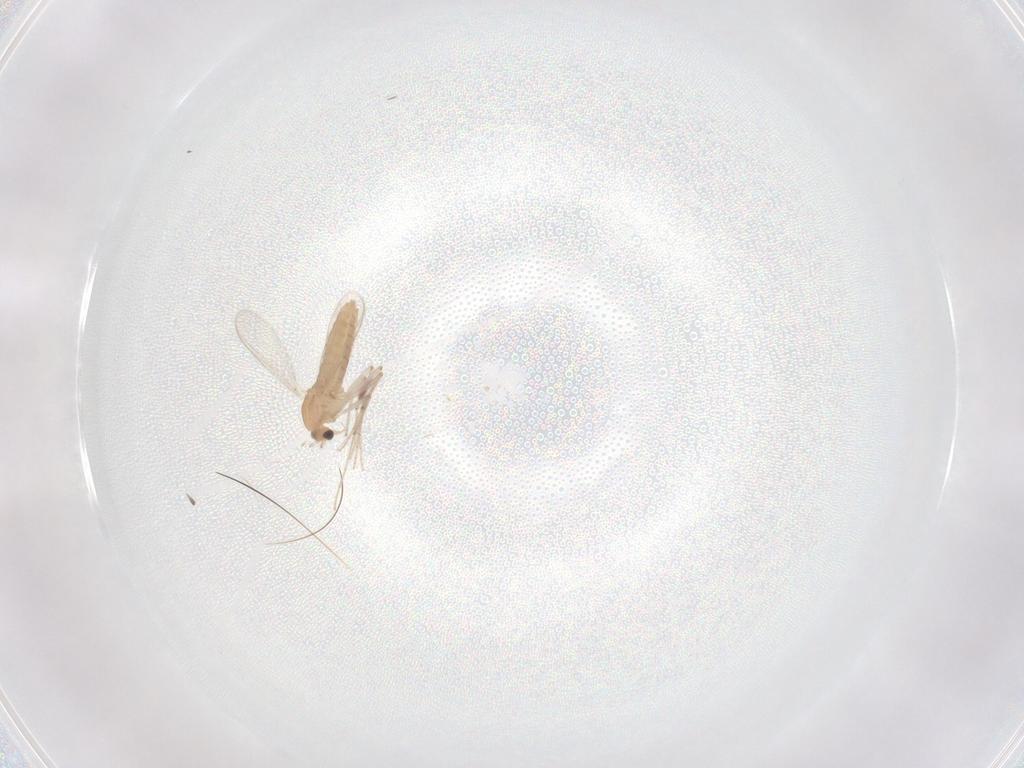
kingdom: Animalia
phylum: Arthropoda
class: Insecta
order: Diptera
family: Chironomidae
